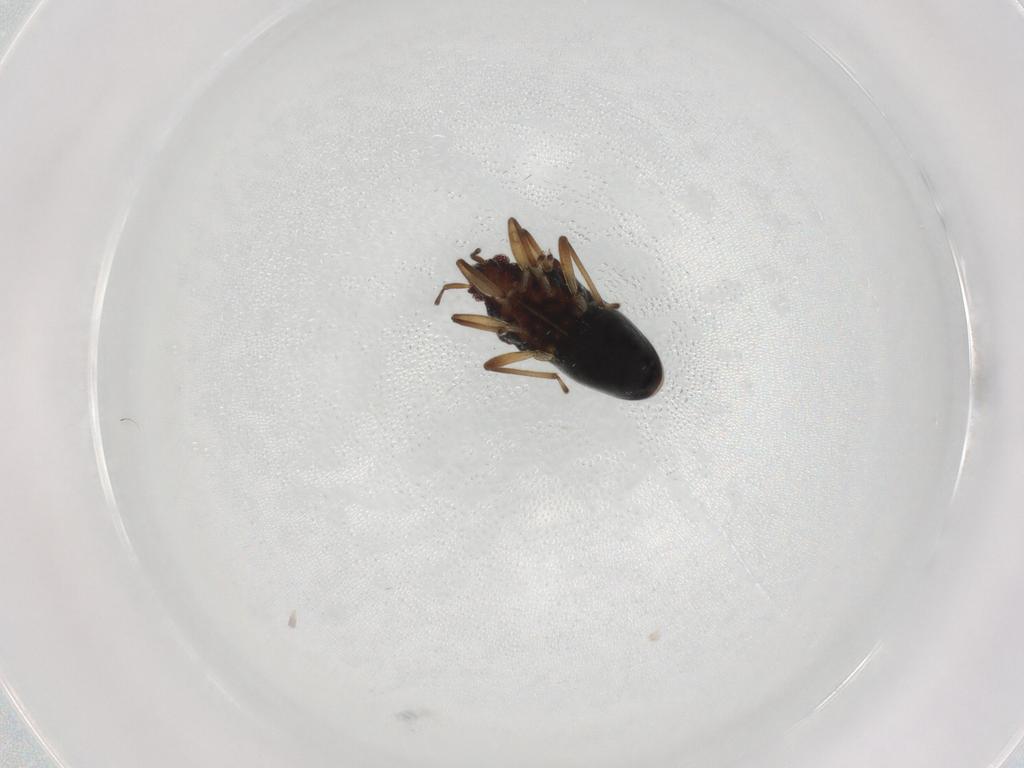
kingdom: Animalia
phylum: Arthropoda
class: Insecta
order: Hemiptera
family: Hebridae
